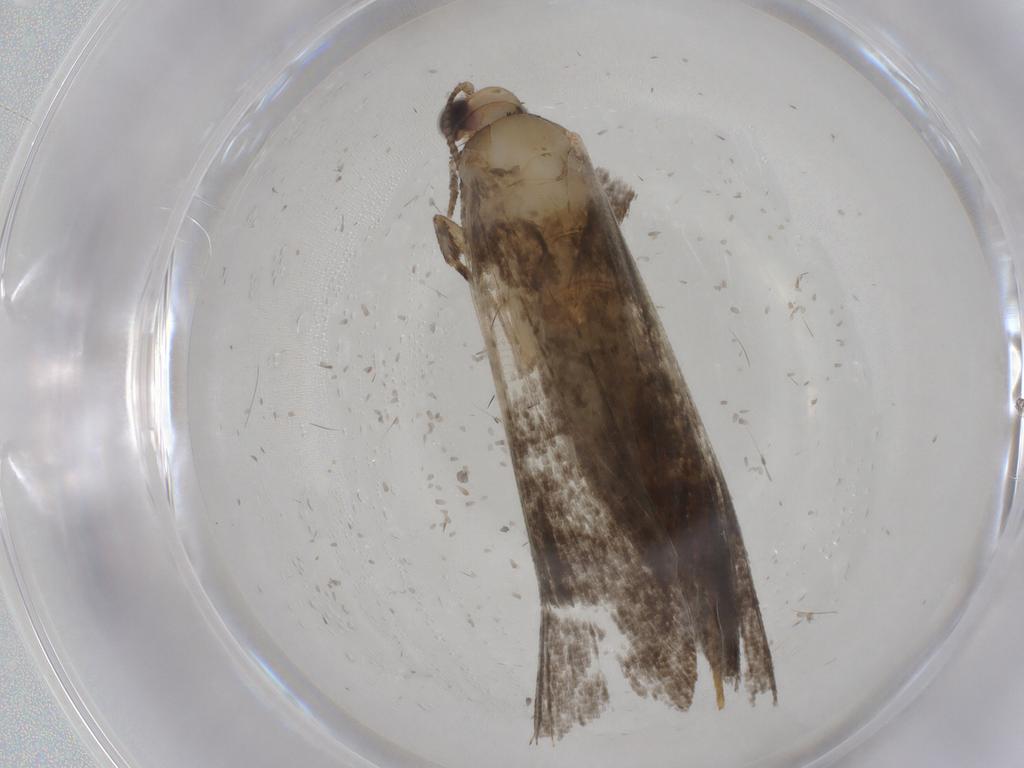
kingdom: Animalia
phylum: Arthropoda
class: Insecta
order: Lepidoptera
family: Tineidae
